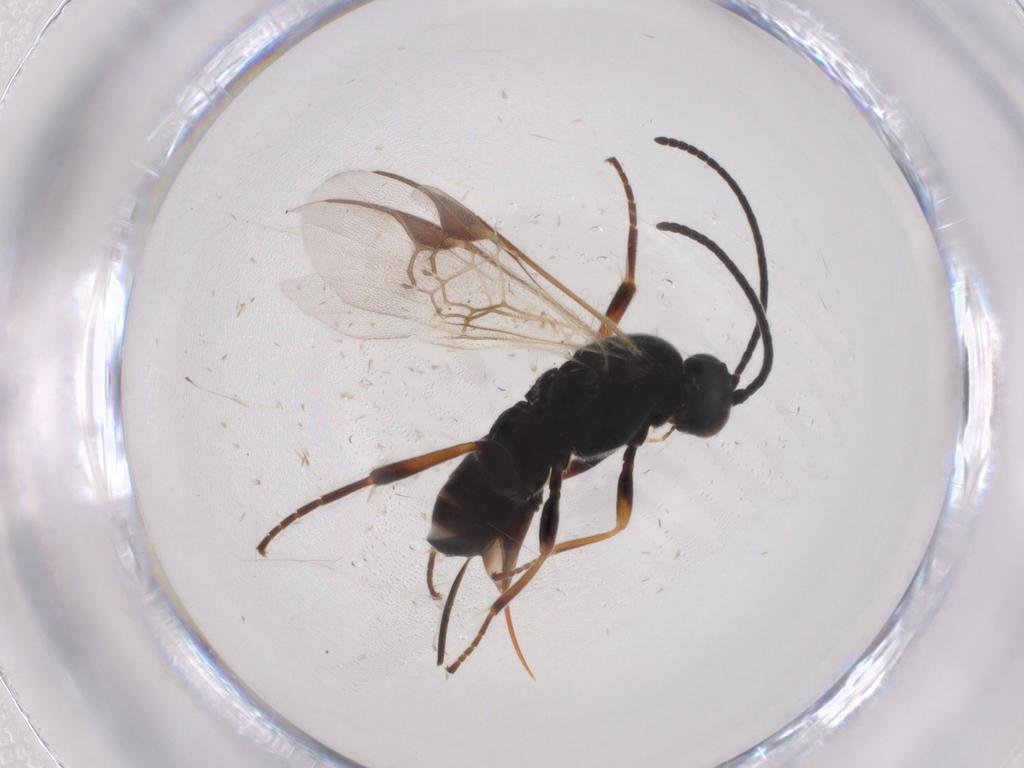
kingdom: Animalia
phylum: Arthropoda
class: Insecta
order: Hymenoptera
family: Braconidae
